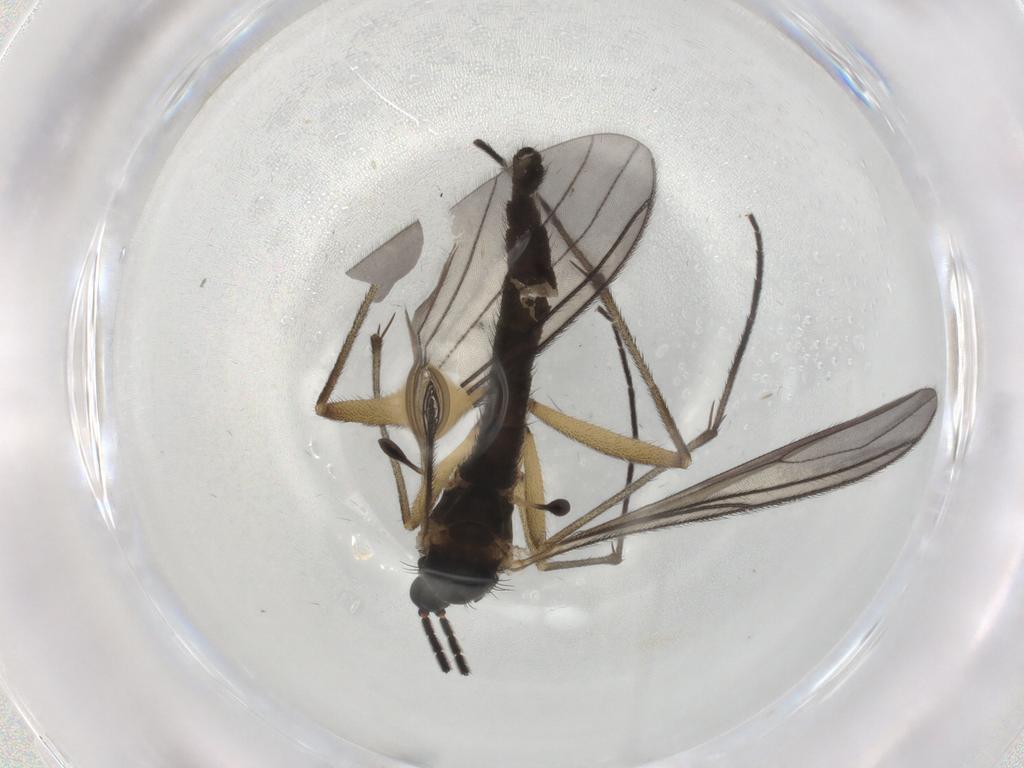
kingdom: Animalia
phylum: Arthropoda
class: Insecta
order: Diptera
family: Sciaridae
